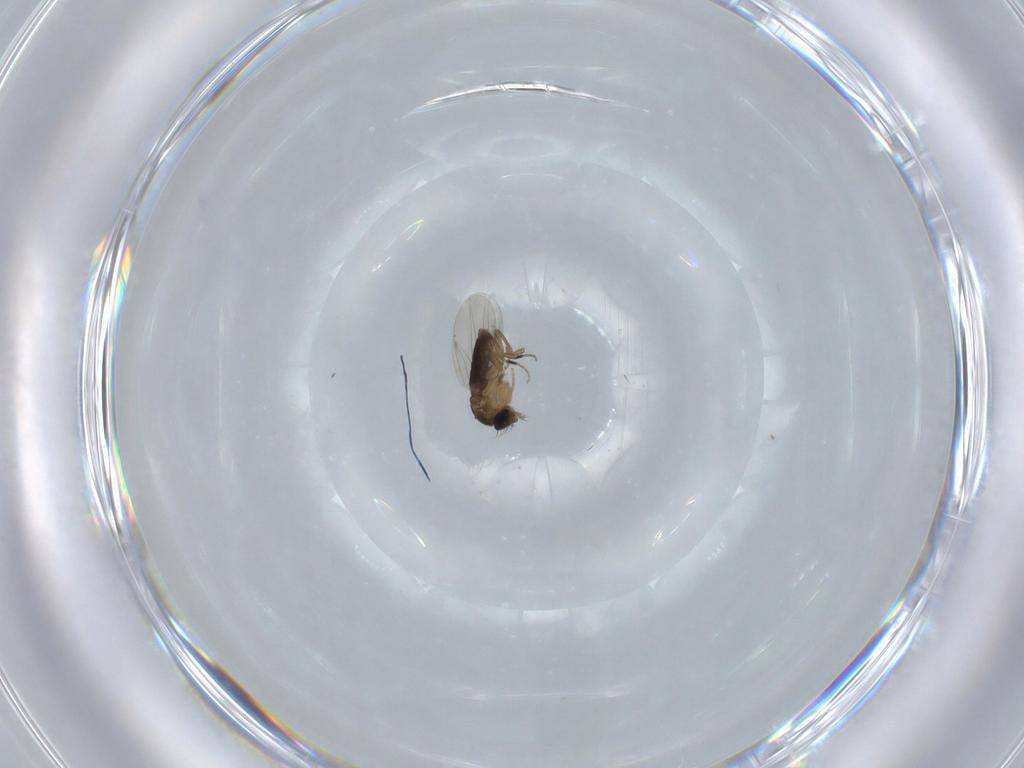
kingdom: Animalia
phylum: Arthropoda
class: Insecta
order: Diptera
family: Phoridae
